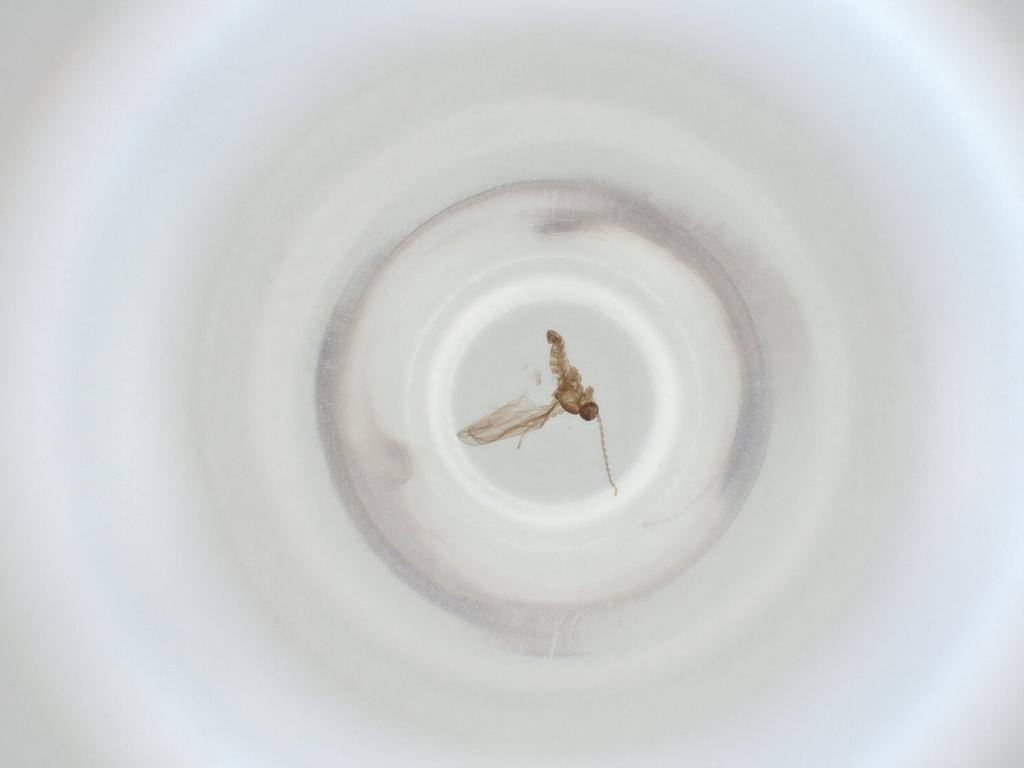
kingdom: Animalia
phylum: Arthropoda
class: Insecta
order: Diptera
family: Cecidomyiidae
